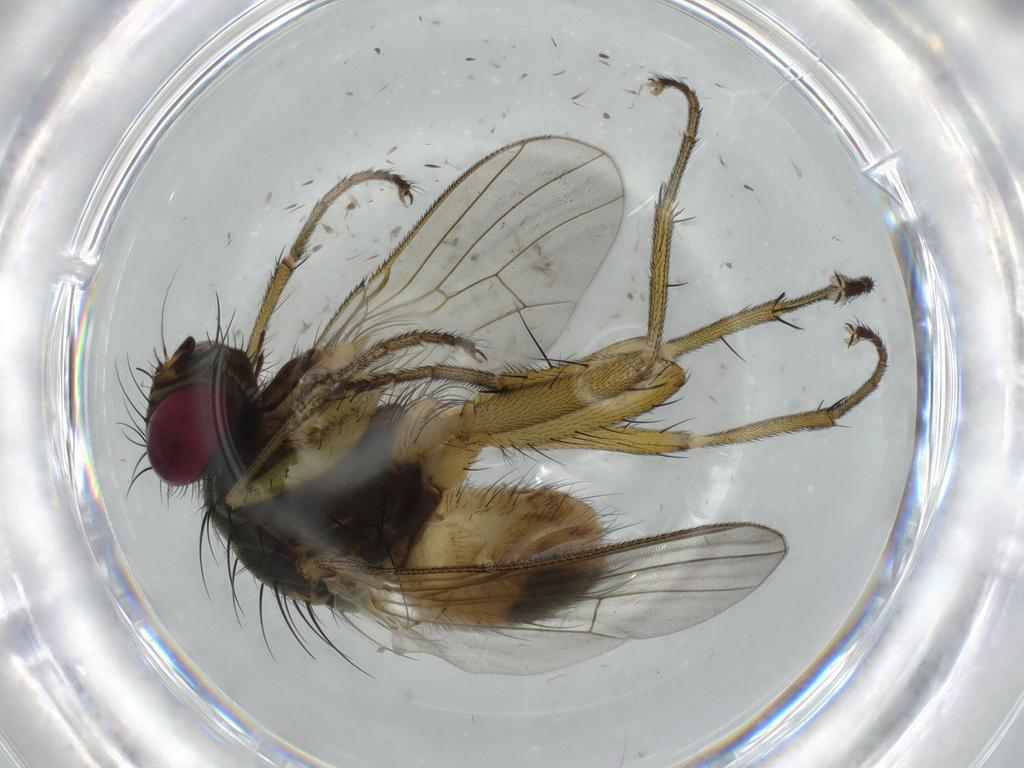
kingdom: Animalia
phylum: Arthropoda
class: Insecta
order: Diptera
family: Muscidae
